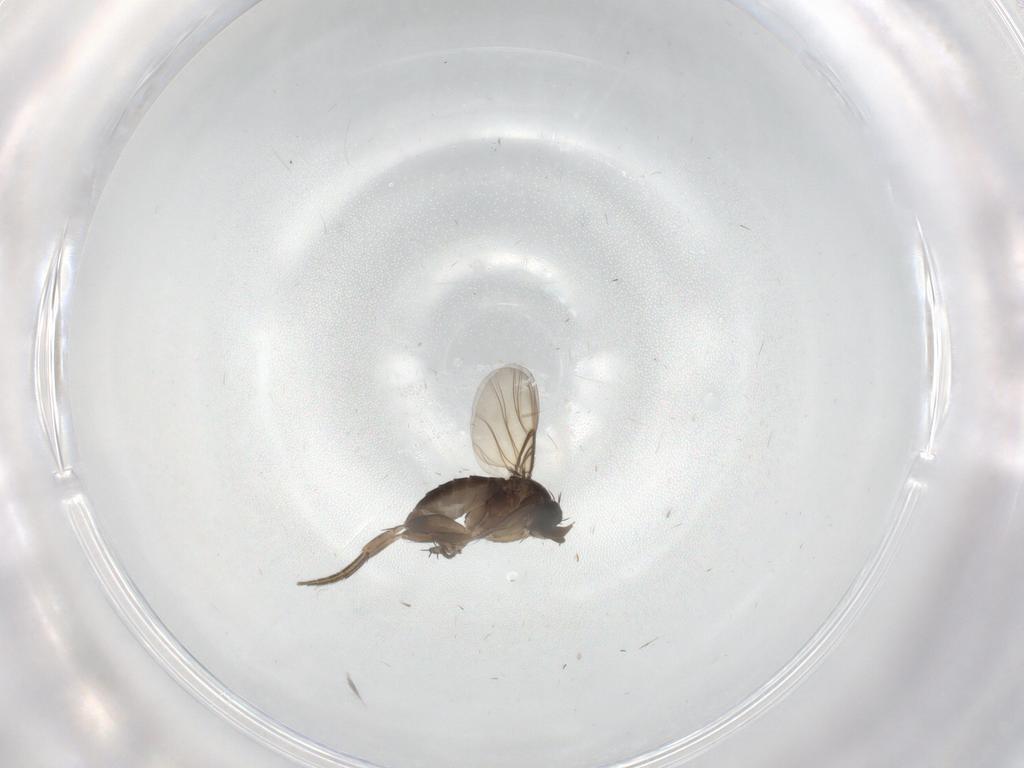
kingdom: Animalia
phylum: Arthropoda
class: Insecta
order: Diptera
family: Phoridae
